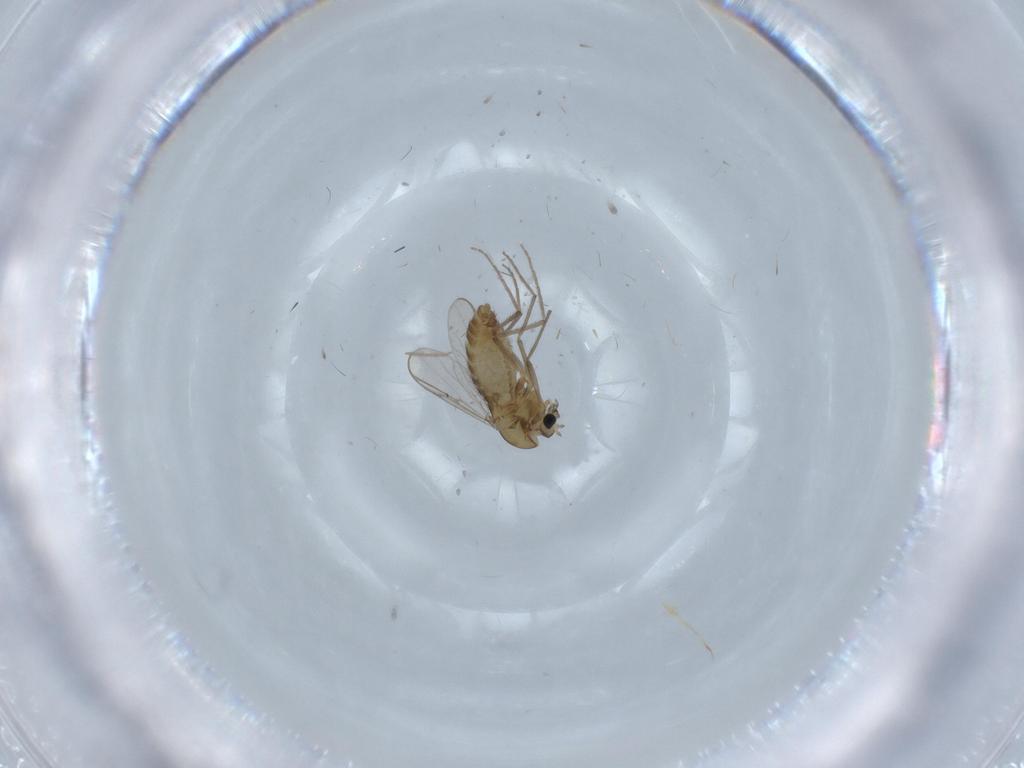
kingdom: Animalia
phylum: Arthropoda
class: Insecta
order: Diptera
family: Chironomidae
